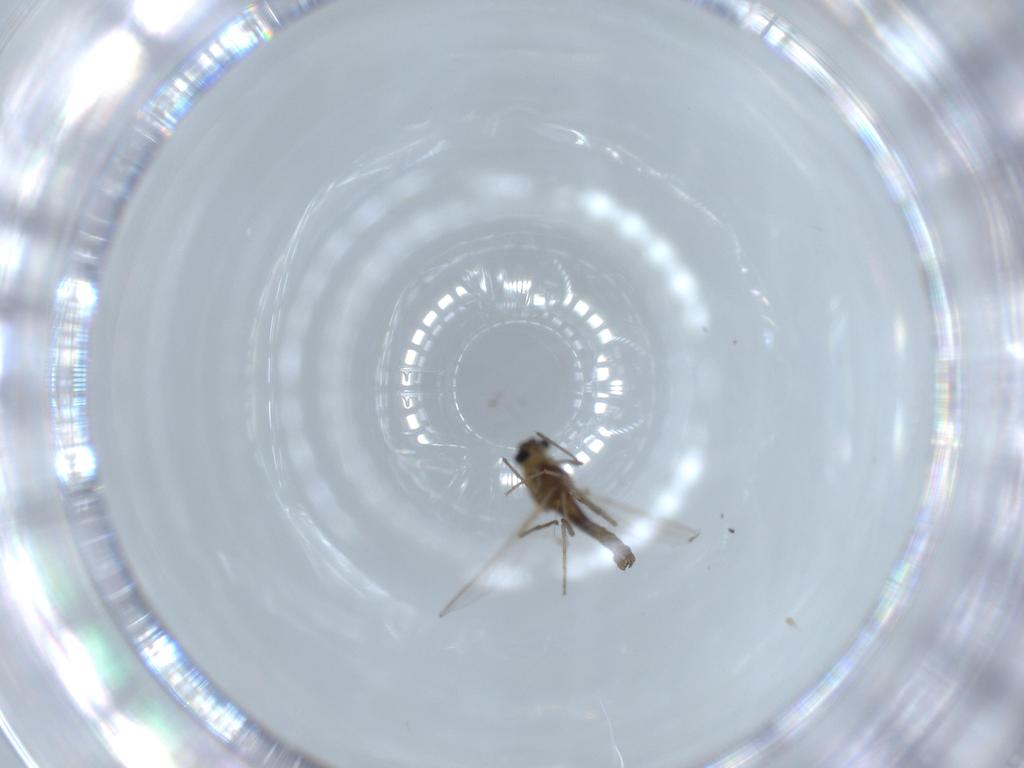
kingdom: Animalia
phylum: Arthropoda
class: Insecta
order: Diptera
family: Chironomidae
